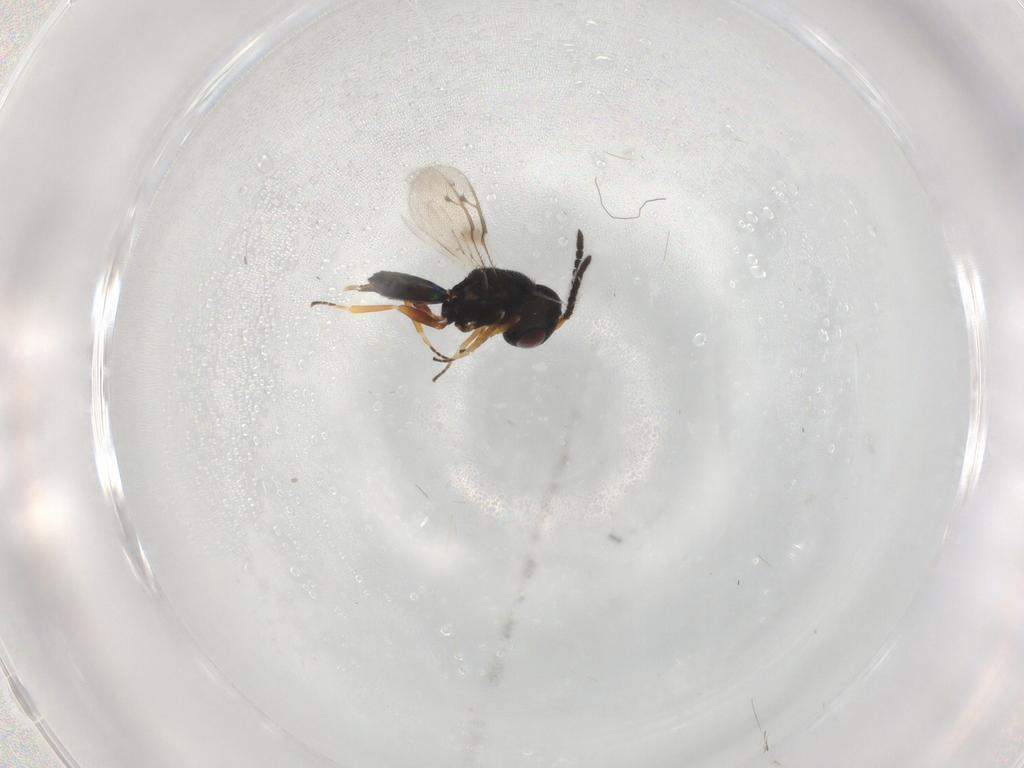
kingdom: Animalia
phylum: Arthropoda
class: Insecta
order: Hymenoptera
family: Pteromalidae
